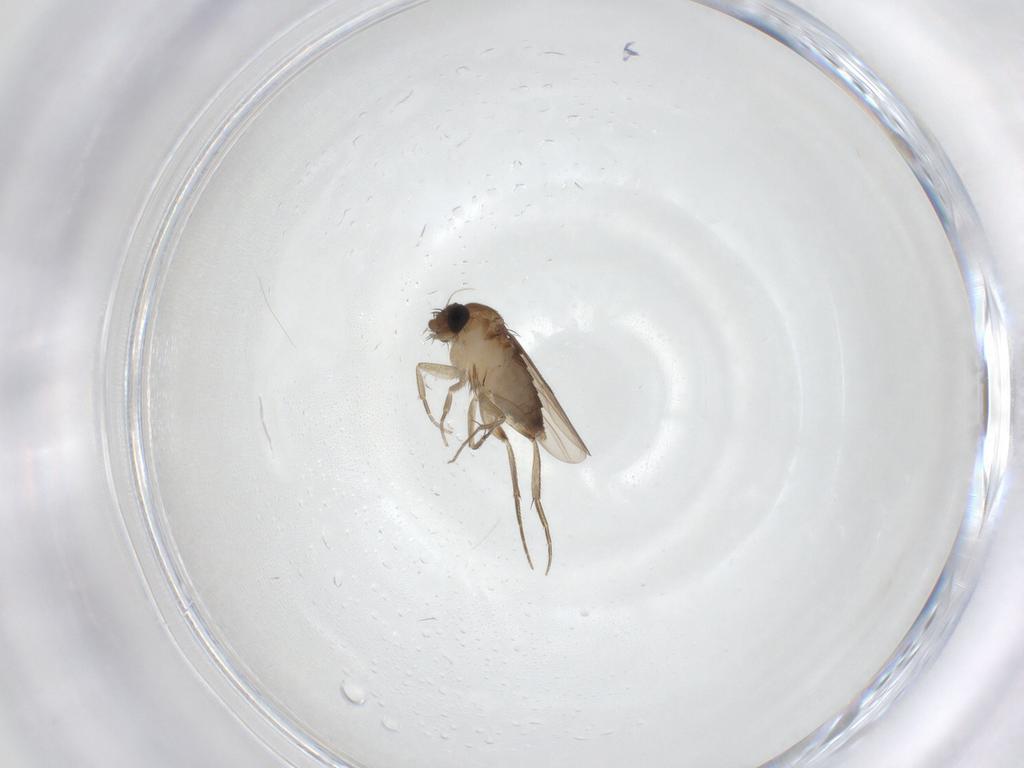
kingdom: Animalia
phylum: Arthropoda
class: Insecta
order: Diptera
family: Phoridae
